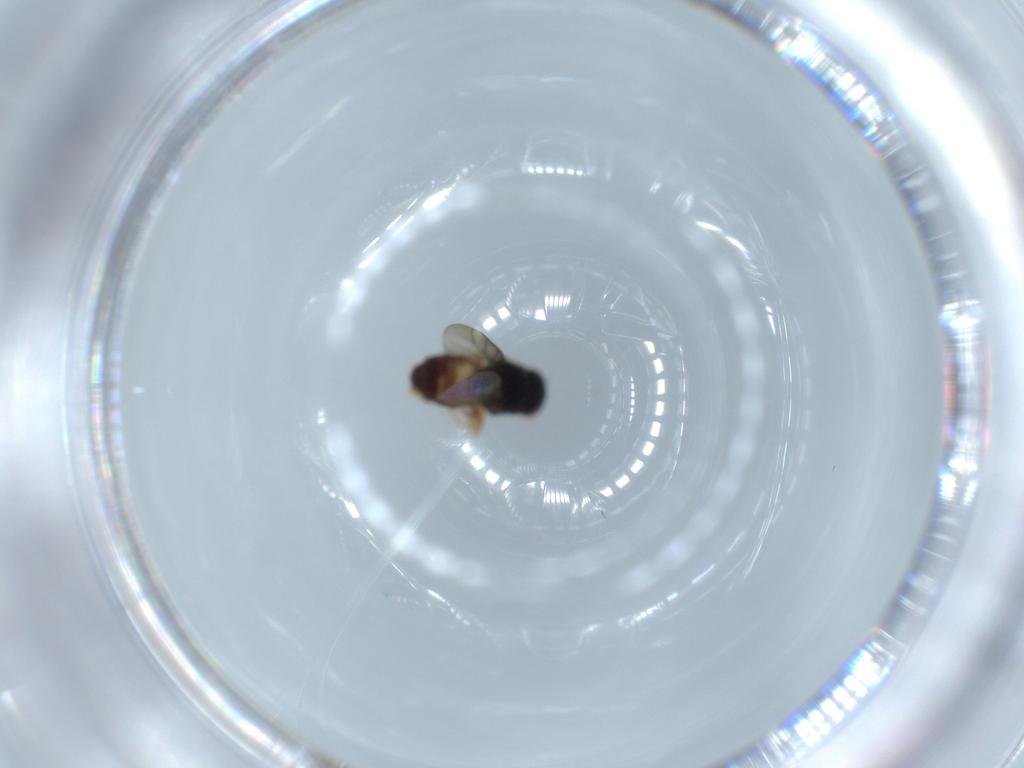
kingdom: Animalia
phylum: Arthropoda
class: Insecta
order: Diptera
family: Chloropidae
